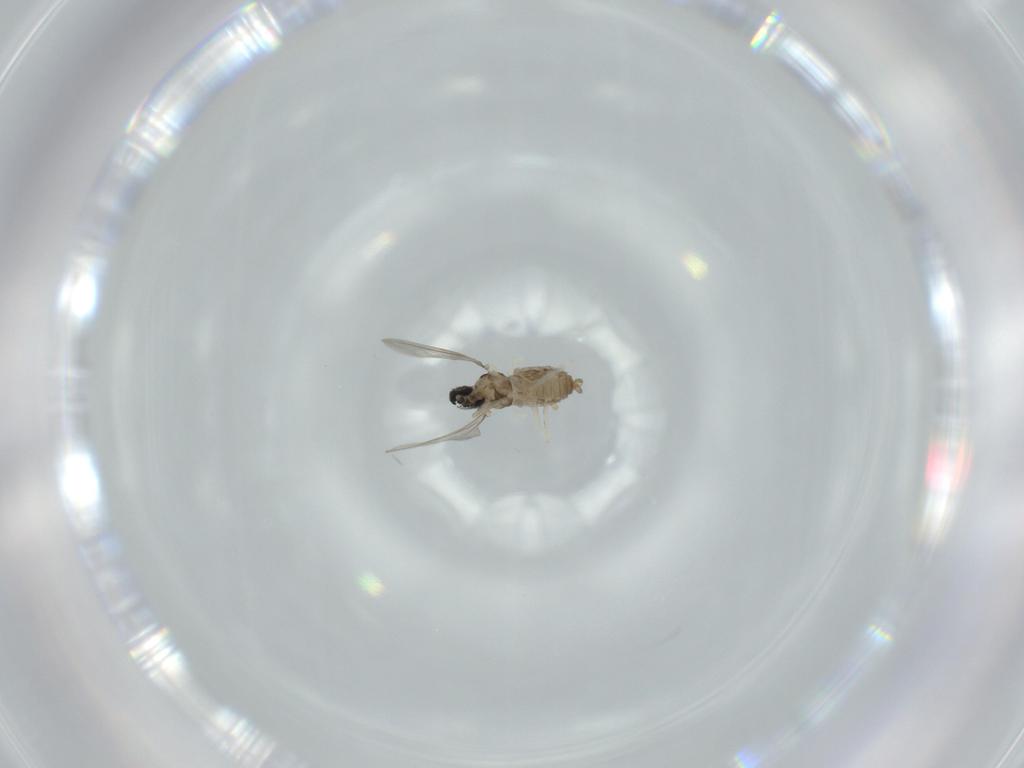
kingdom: Animalia
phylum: Arthropoda
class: Insecta
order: Diptera
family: Cecidomyiidae
